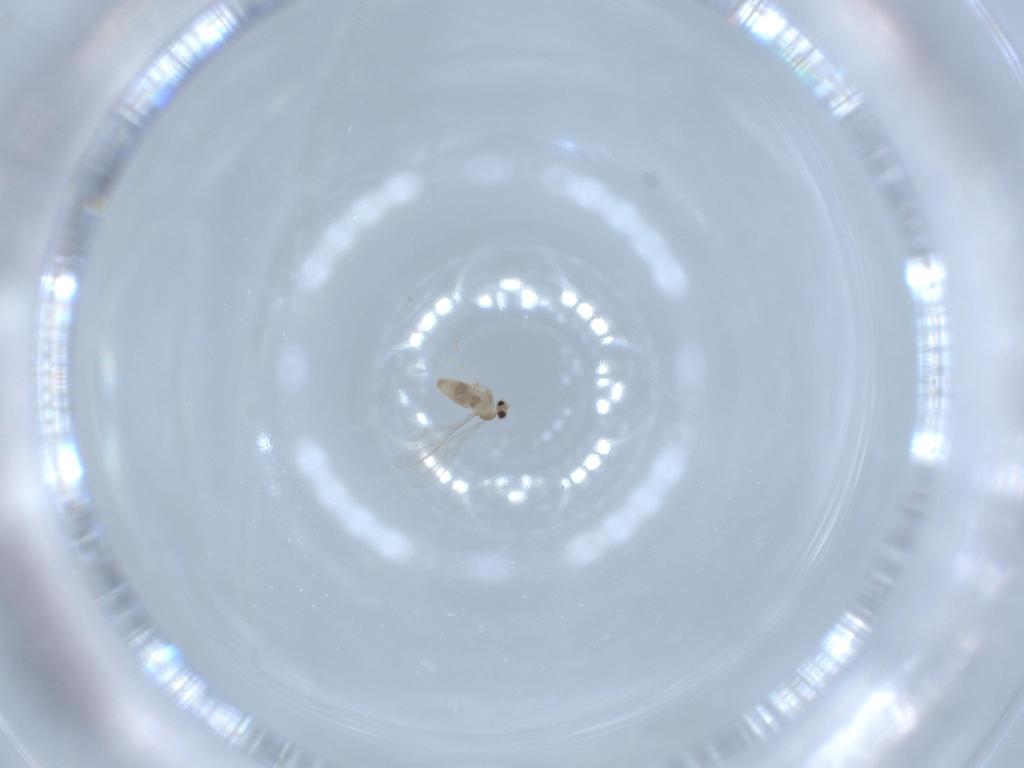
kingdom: Animalia
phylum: Arthropoda
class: Insecta
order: Diptera
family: Cecidomyiidae
